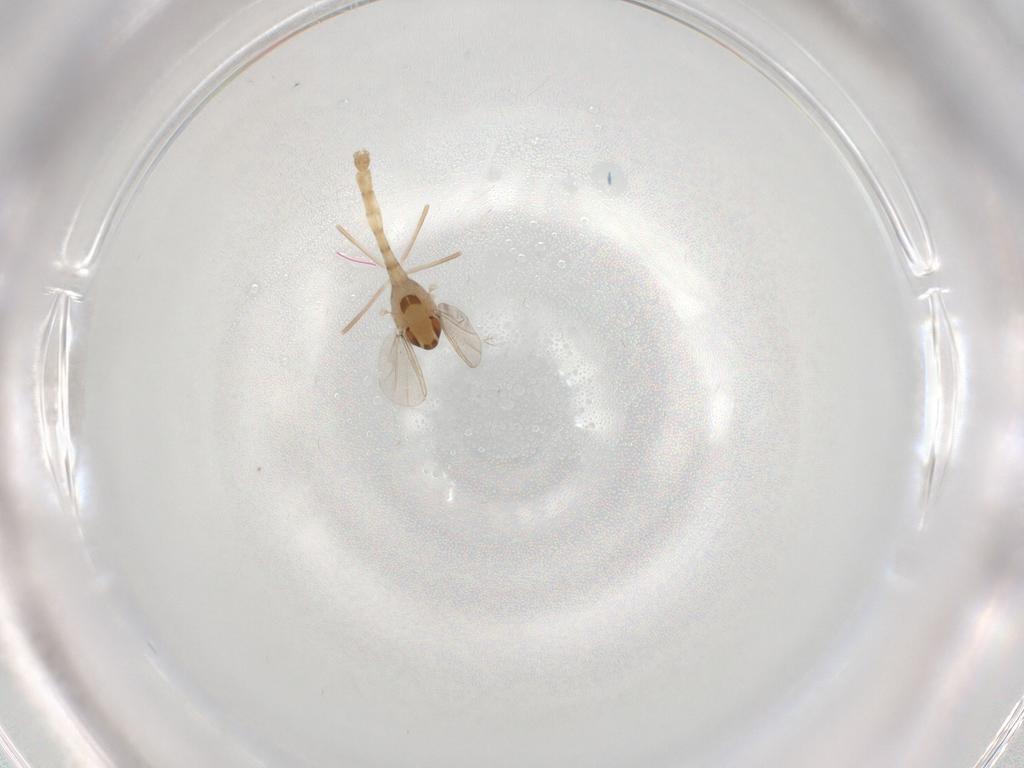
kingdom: Animalia
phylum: Arthropoda
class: Insecta
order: Diptera
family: Chironomidae
